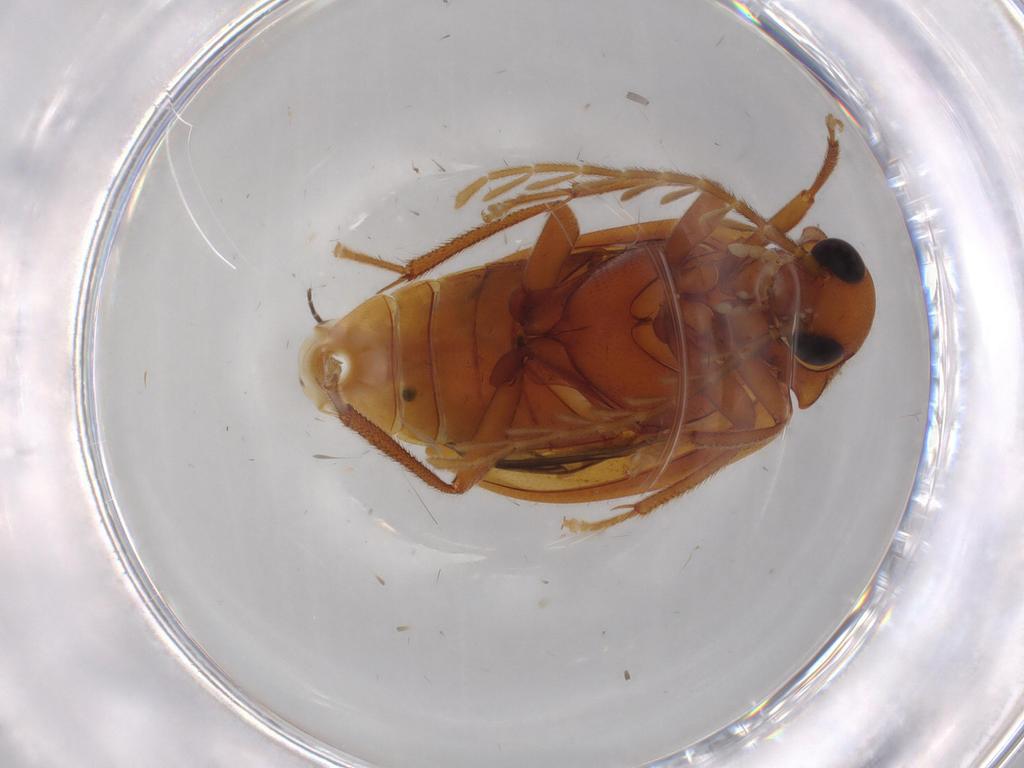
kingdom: Animalia
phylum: Arthropoda
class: Insecta
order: Coleoptera
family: Ptilodactylidae
